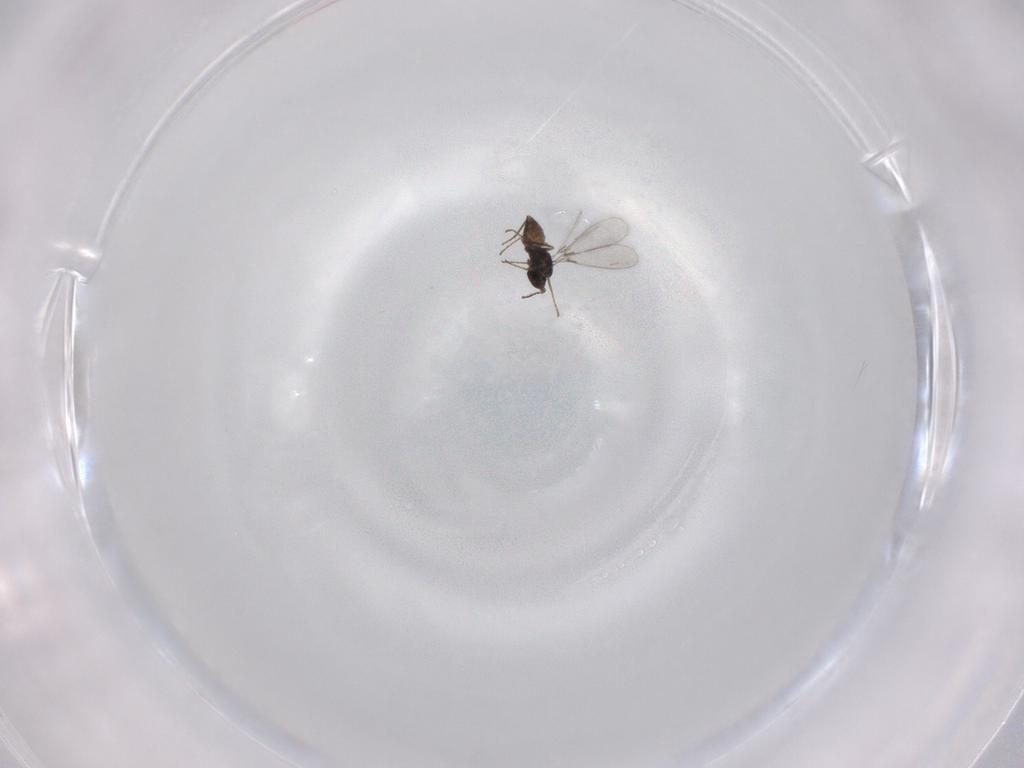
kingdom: Animalia
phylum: Arthropoda
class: Insecta
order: Hymenoptera
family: Mymaridae
